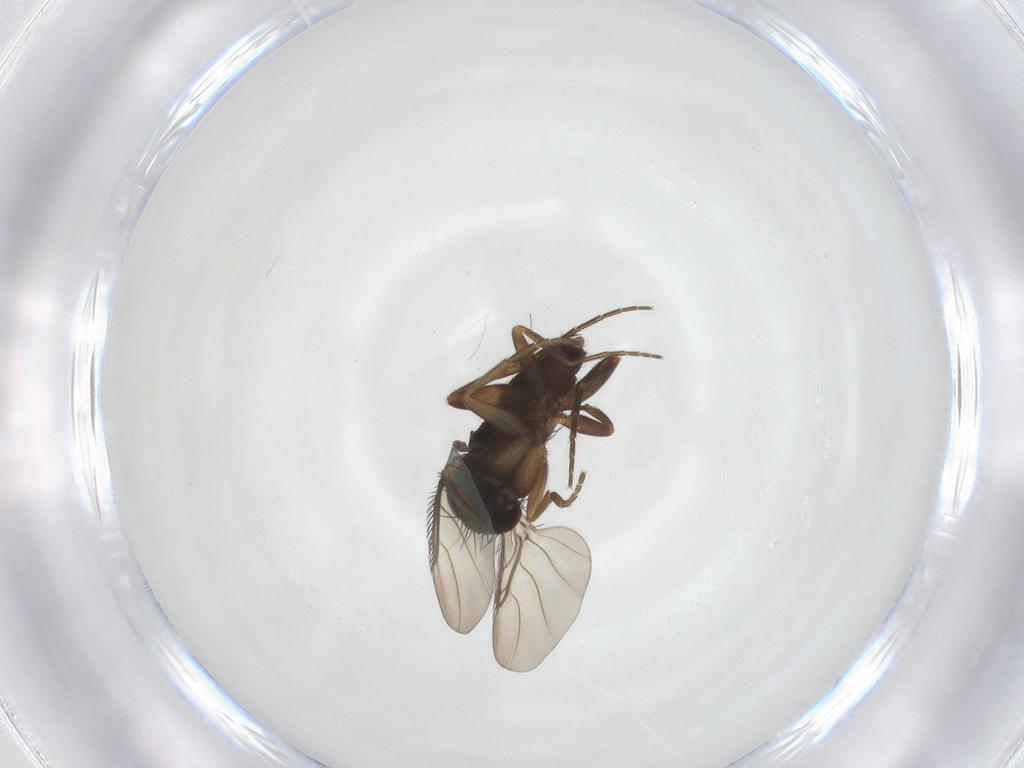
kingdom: Animalia
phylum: Arthropoda
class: Insecta
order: Diptera
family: Phoridae
